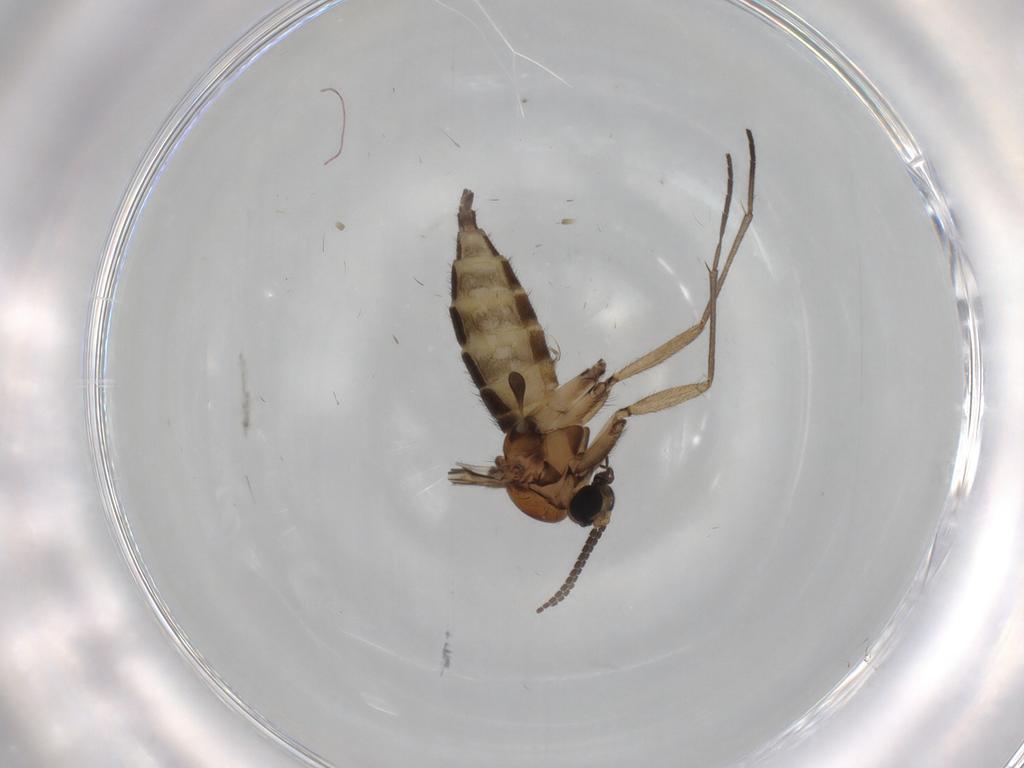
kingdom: Animalia
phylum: Arthropoda
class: Insecta
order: Diptera
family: Sciaridae
